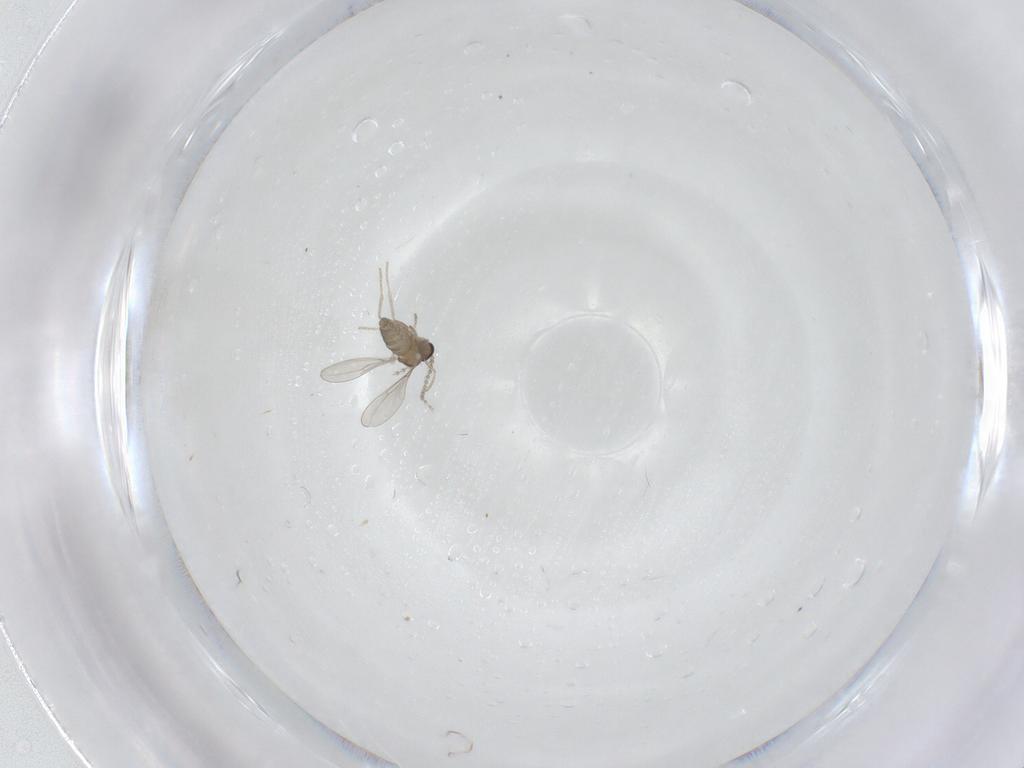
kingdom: Animalia
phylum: Arthropoda
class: Insecta
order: Diptera
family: Cecidomyiidae
